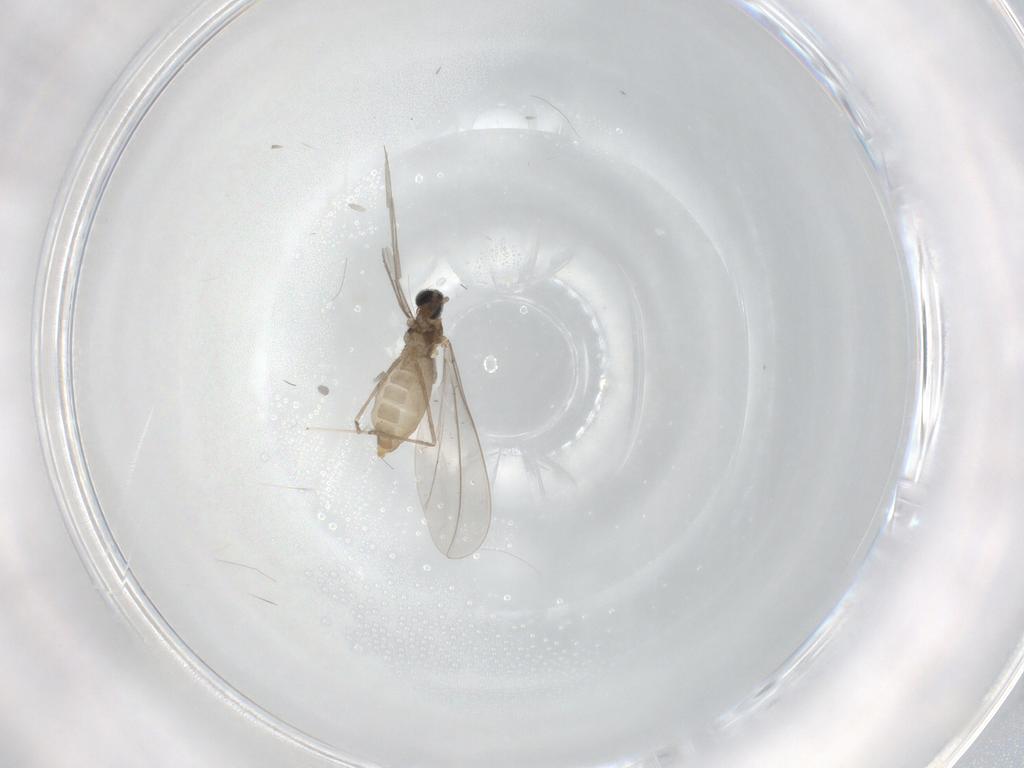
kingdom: Animalia
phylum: Arthropoda
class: Insecta
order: Diptera
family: Cecidomyiidae
